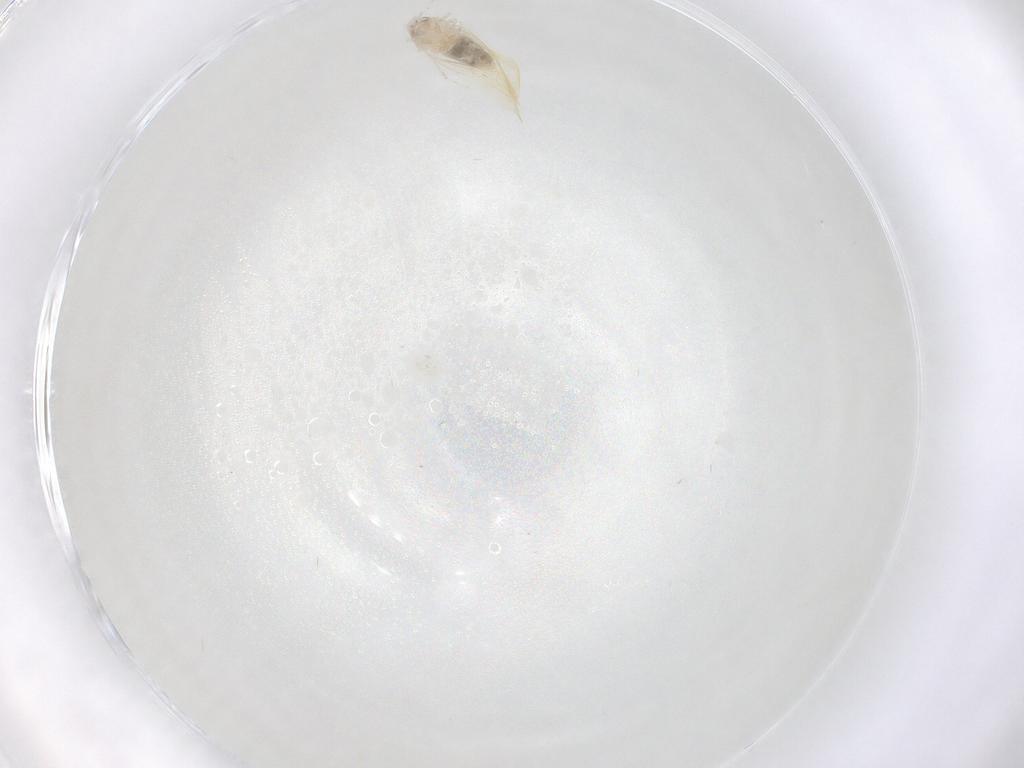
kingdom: Animalia
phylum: Arthropoda
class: Insecta
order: Hemiptera
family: Aleyrodidae
